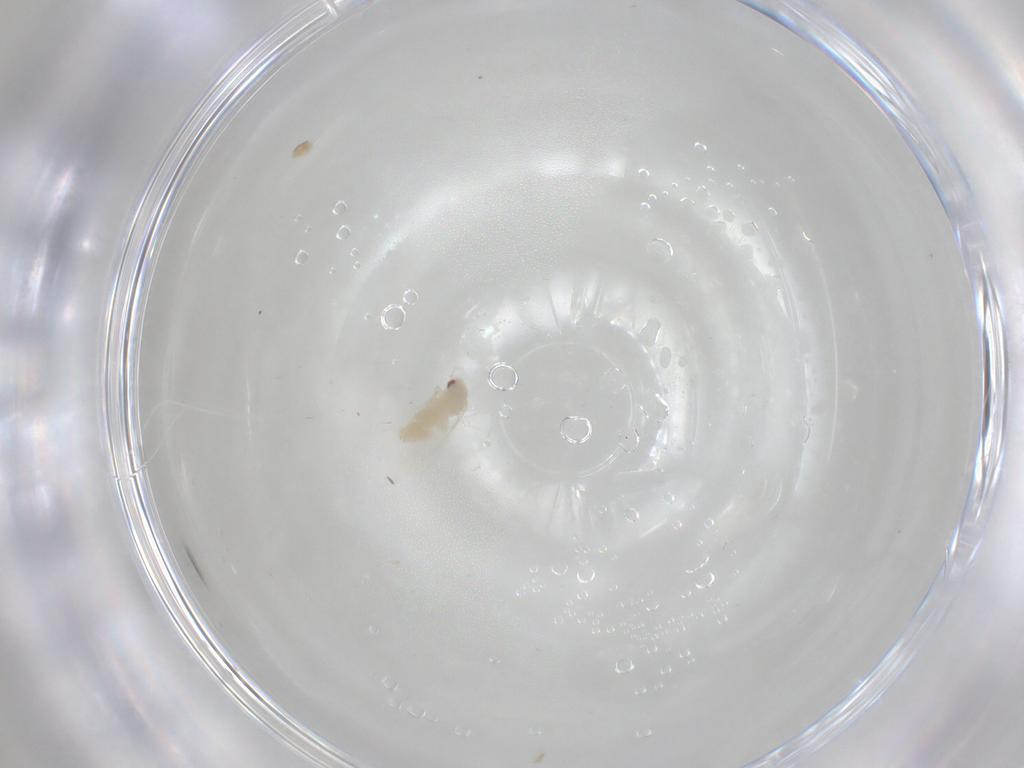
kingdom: Animalia
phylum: Arthropoda
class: Insecta
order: Hemiptera
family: Aleyrodidae
